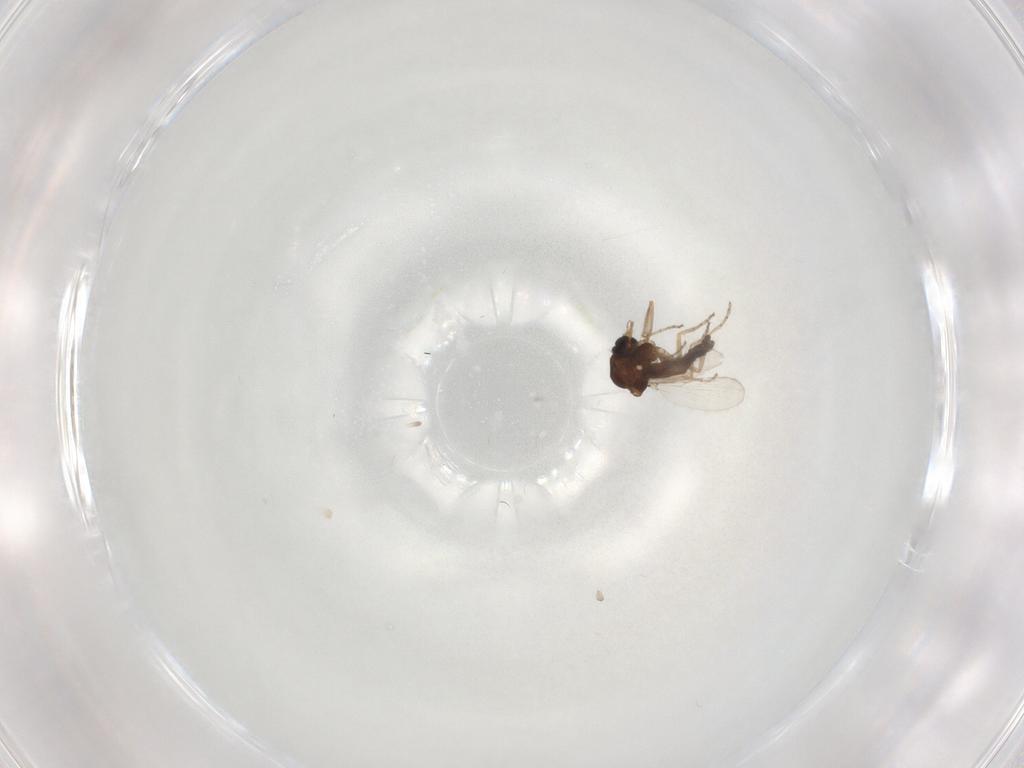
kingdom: Animalia
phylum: Arthropoda
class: Insecta
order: Diptera
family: Ceratopogonidae
